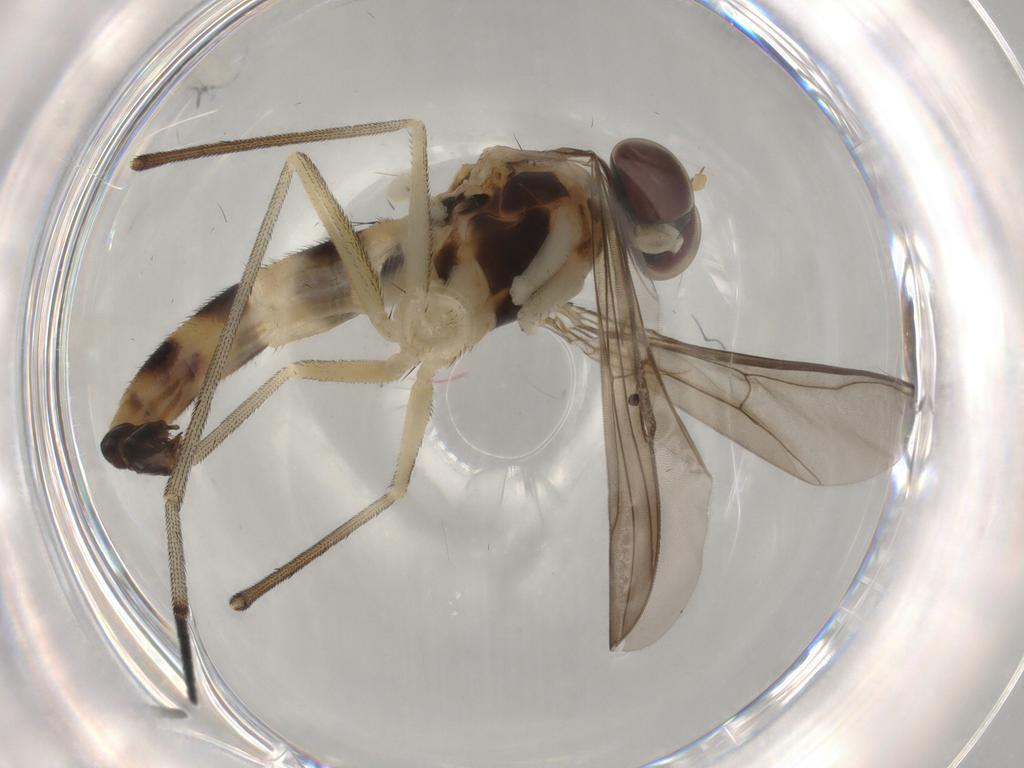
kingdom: Animalia
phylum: Arthropoda
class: Insecta
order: Diptera
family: Sciaridae
